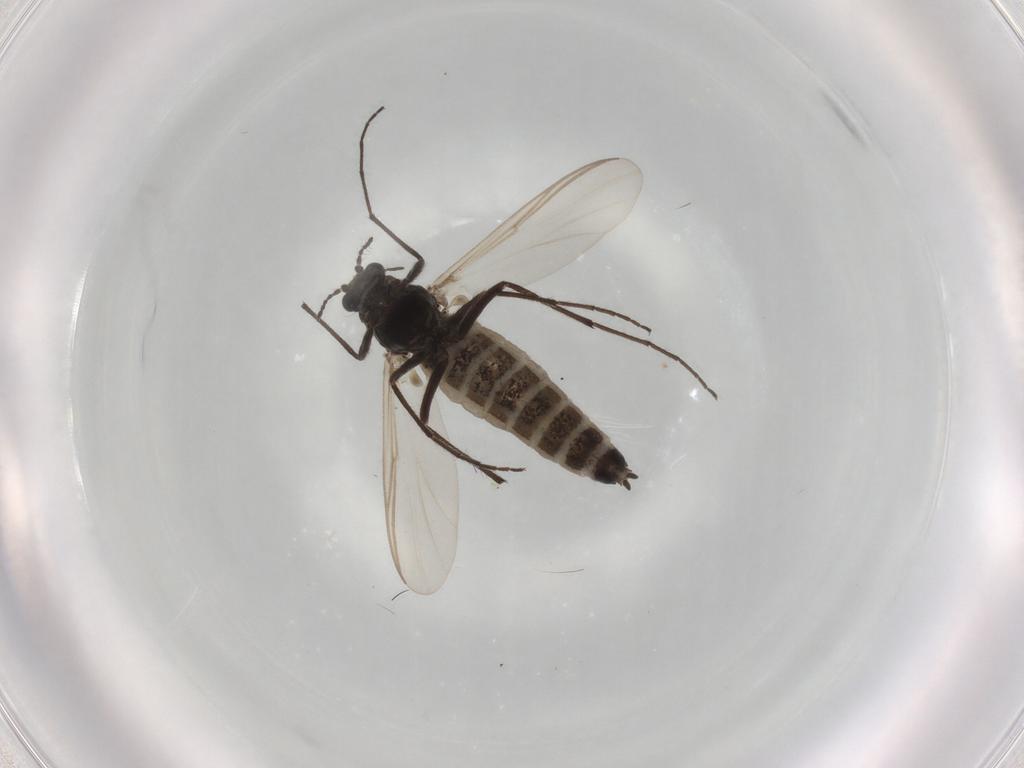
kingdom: Animalia
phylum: Arthropoda
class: Insecta
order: Diptera
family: Chironomidae
